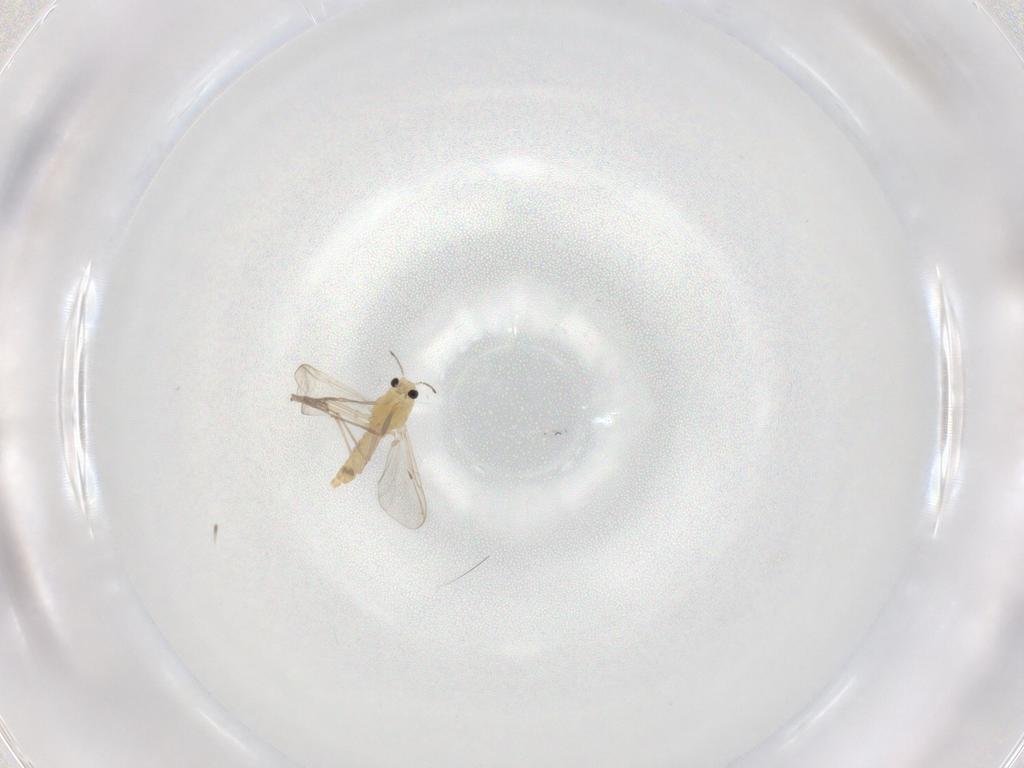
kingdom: Animalia
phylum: Arthropoda
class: Insecta
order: Diptera
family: Chironomidae
